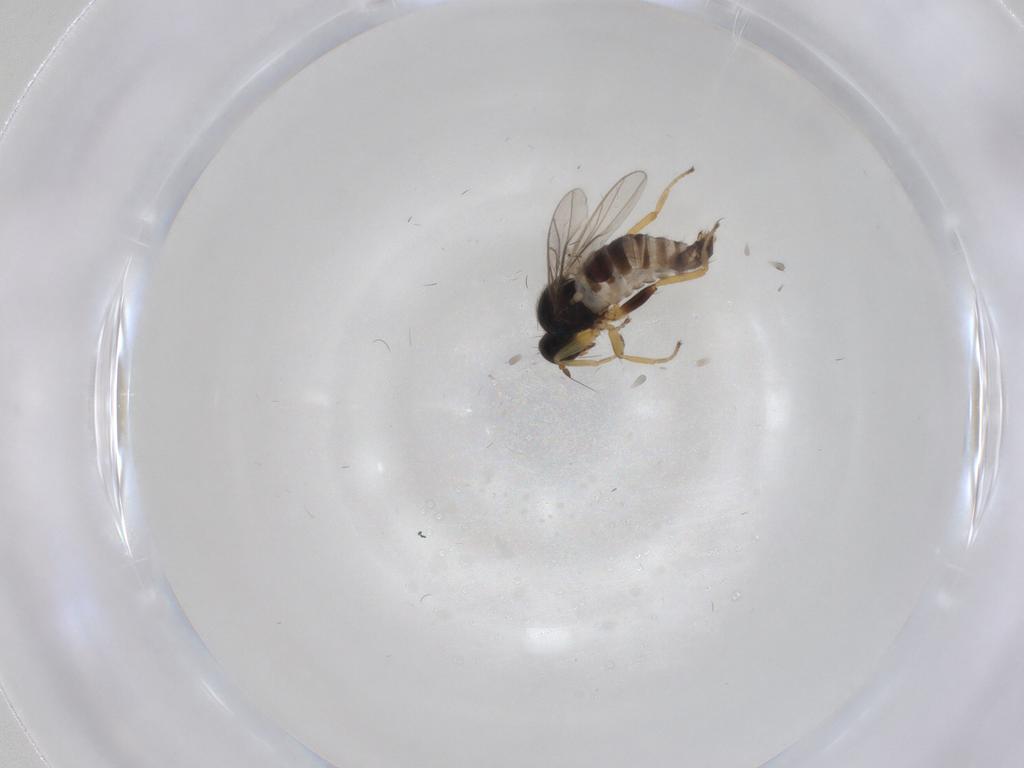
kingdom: Animalia
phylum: Arthropoda
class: Insecta
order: Diptera
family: Hybotidae
